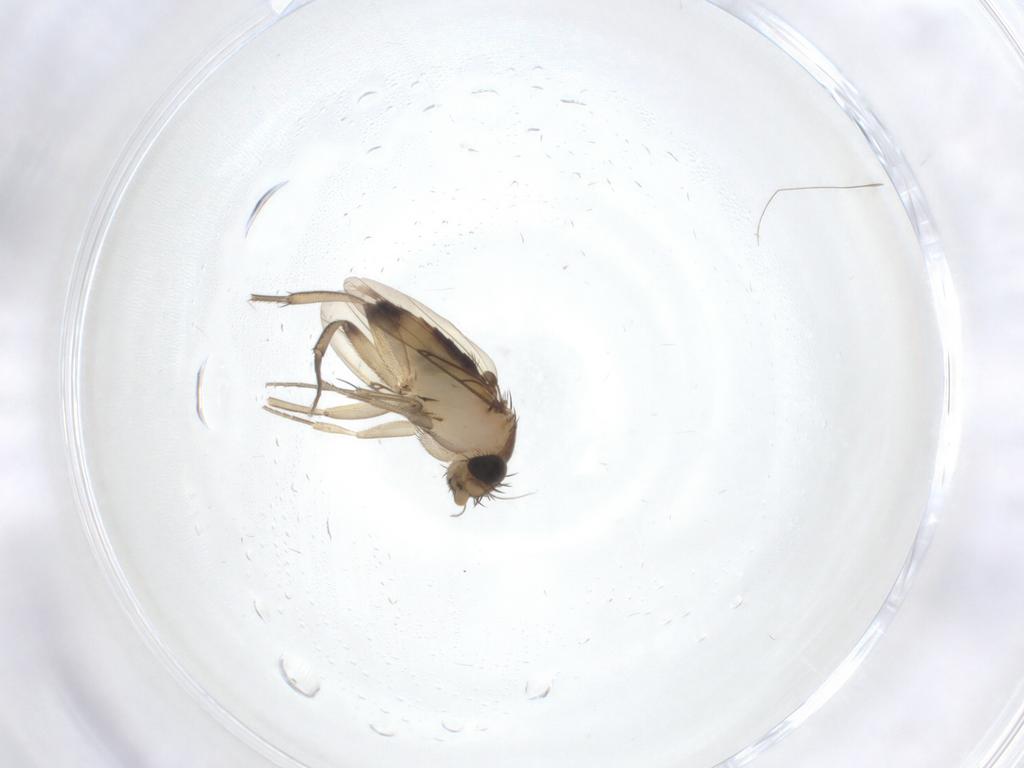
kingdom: Animalia
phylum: Arthropoda
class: Insecta
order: Diptera
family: Phoridae
